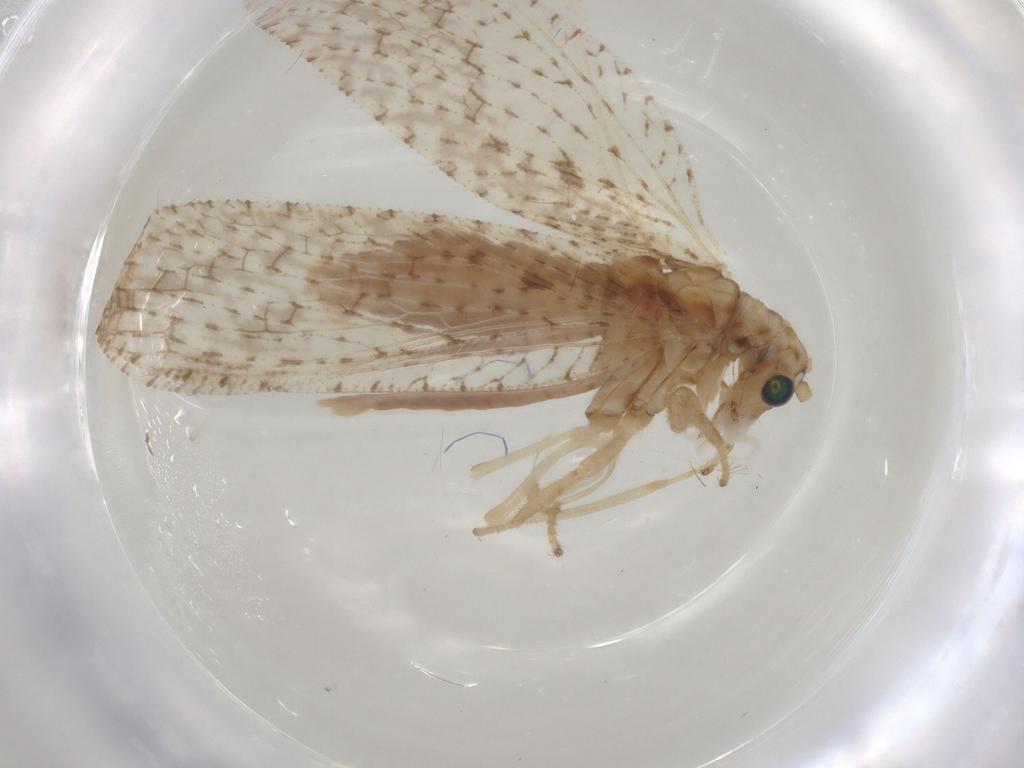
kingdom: Animalia
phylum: Arthropoda
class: Insecta
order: Neuroptera
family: Hemerobiidae
